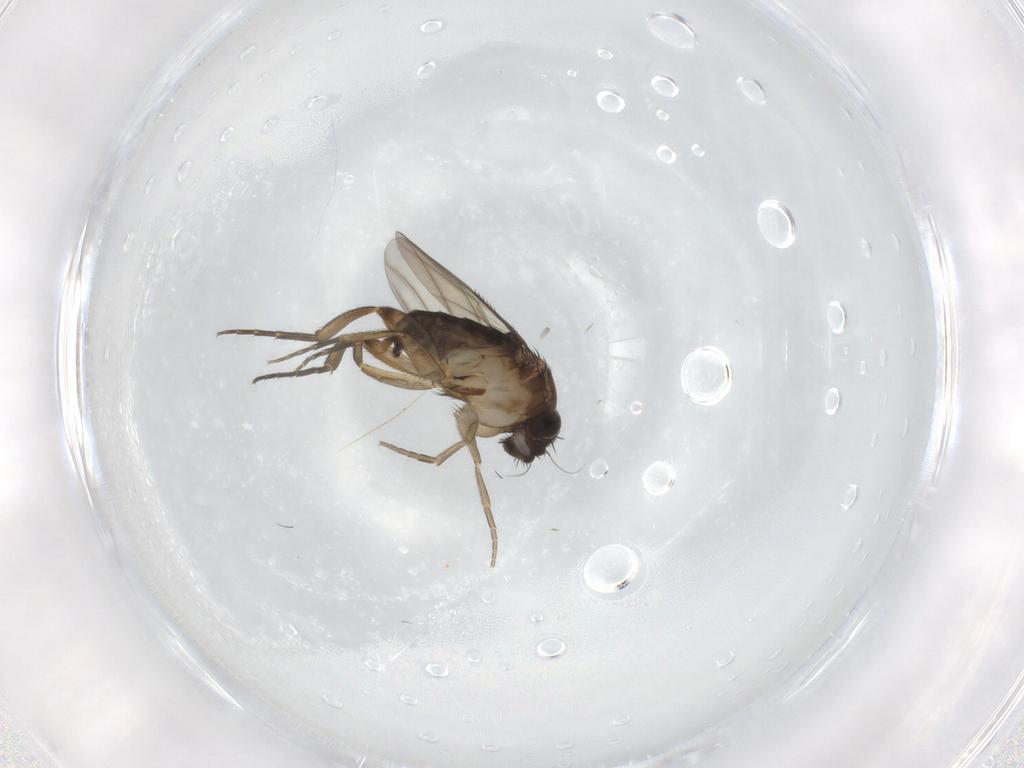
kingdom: Animalia
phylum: Arthropoda
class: Insecta
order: Diptera
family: Phoridae
